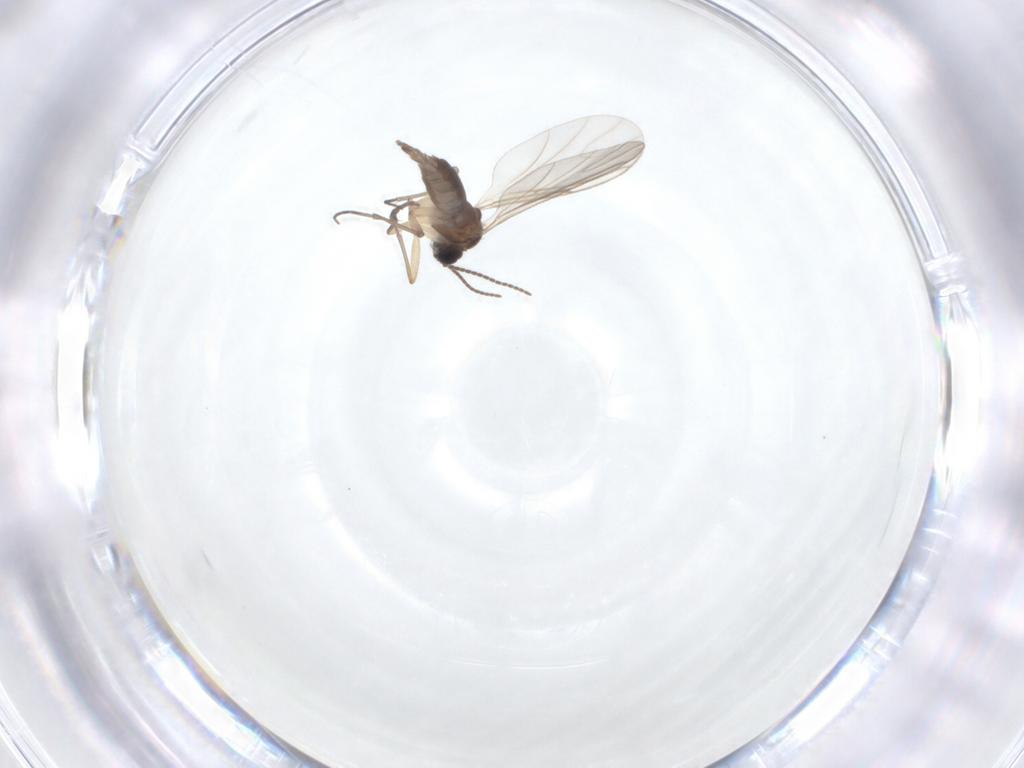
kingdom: Animalia
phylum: Arthropoda
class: Insecta
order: Diptera
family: Sciaridae
